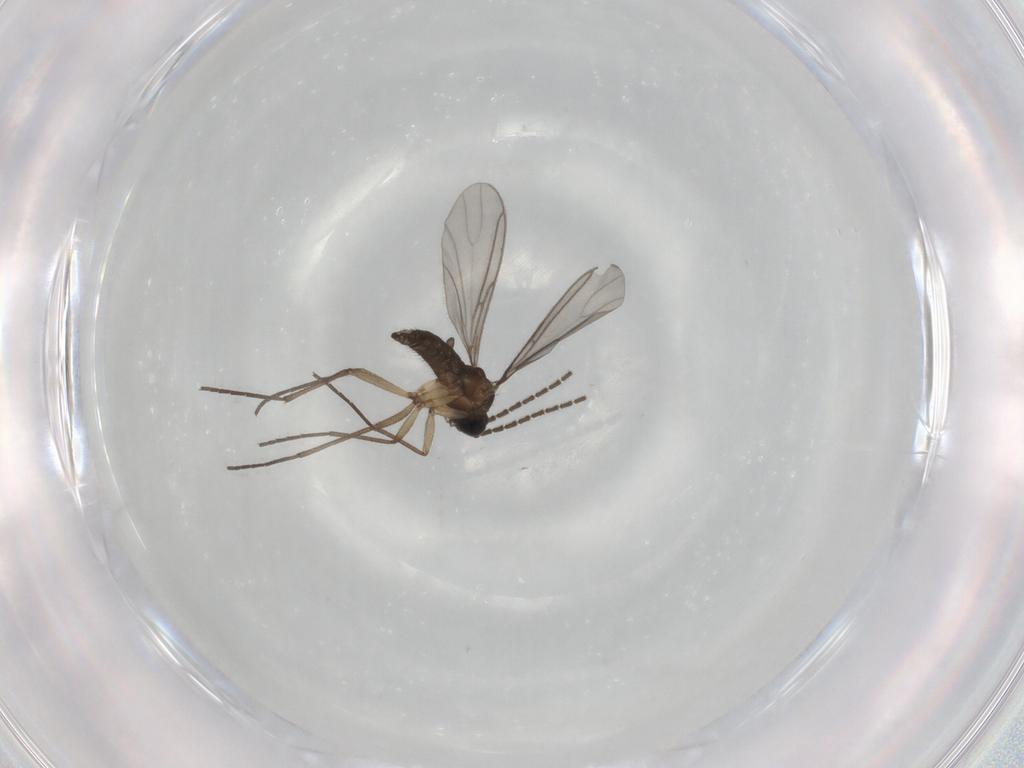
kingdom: Animalia
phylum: Arthropoda
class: Insecta
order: Diptera
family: Sciaridae
